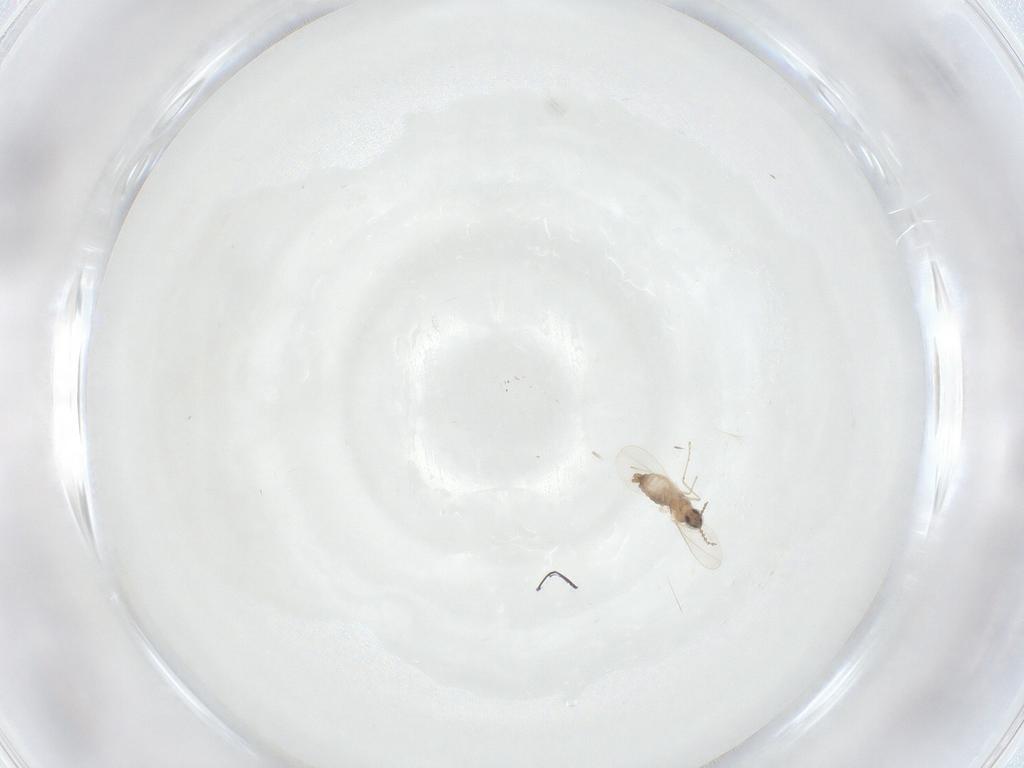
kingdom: Animalia
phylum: Arthropoda
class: Insecta
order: Diptera
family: Cecidomyiidae
